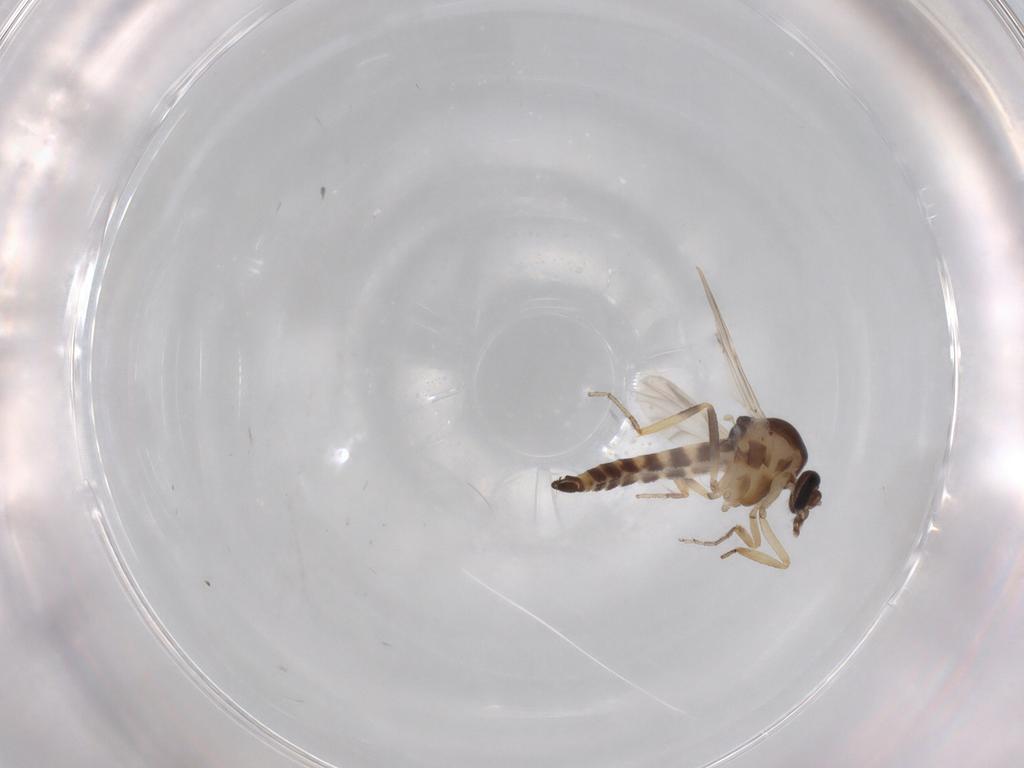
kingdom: Animalia
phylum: Arthropoda
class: Insecta
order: Diptera
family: Ceratopogonidae
